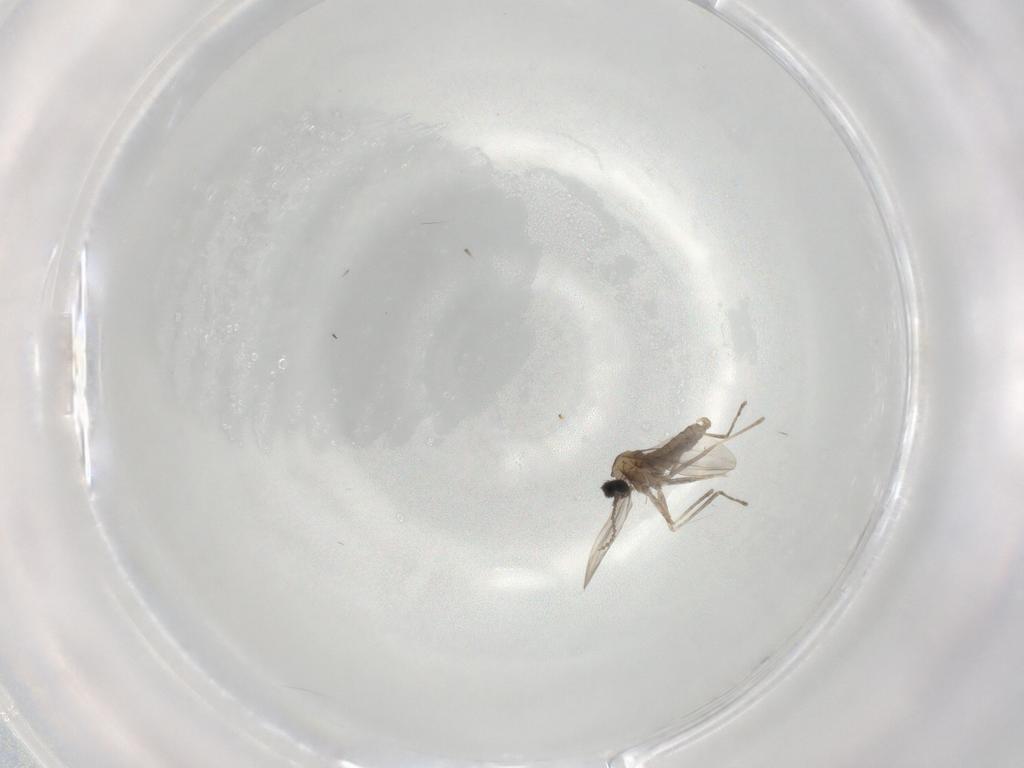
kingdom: Animalia
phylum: Arthropoda
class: Insecta
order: Diptera
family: Cecidomyiidae
